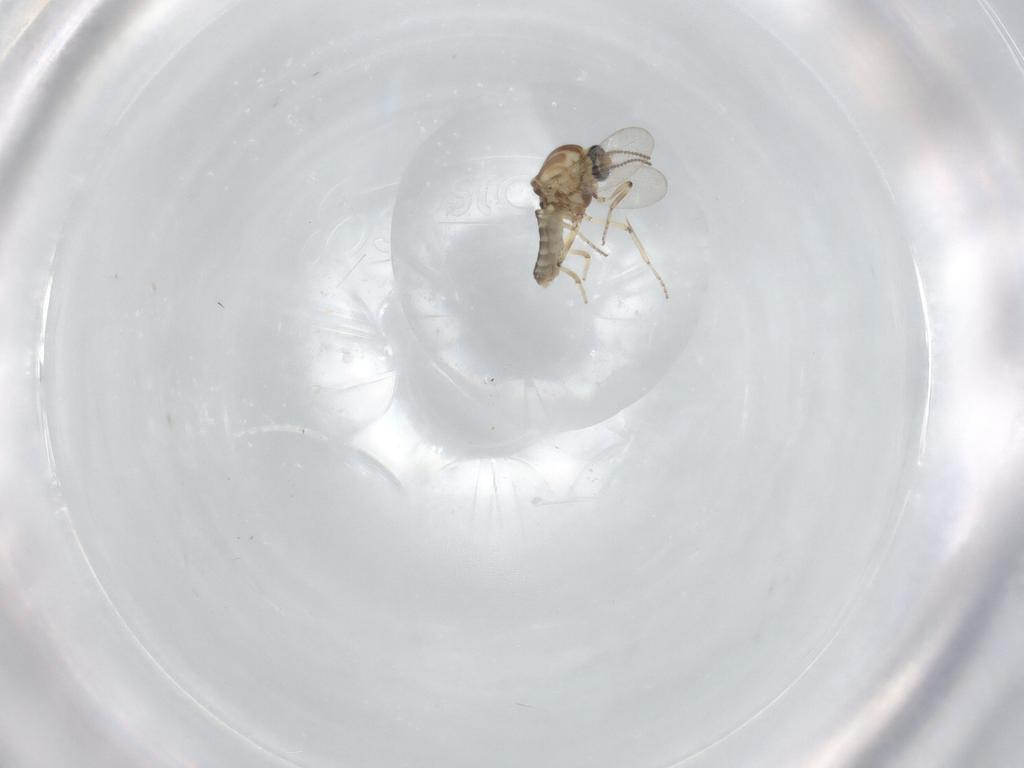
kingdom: Animalia
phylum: Arthropoda
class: Insecta
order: Diptera
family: Ceratopogonidae
